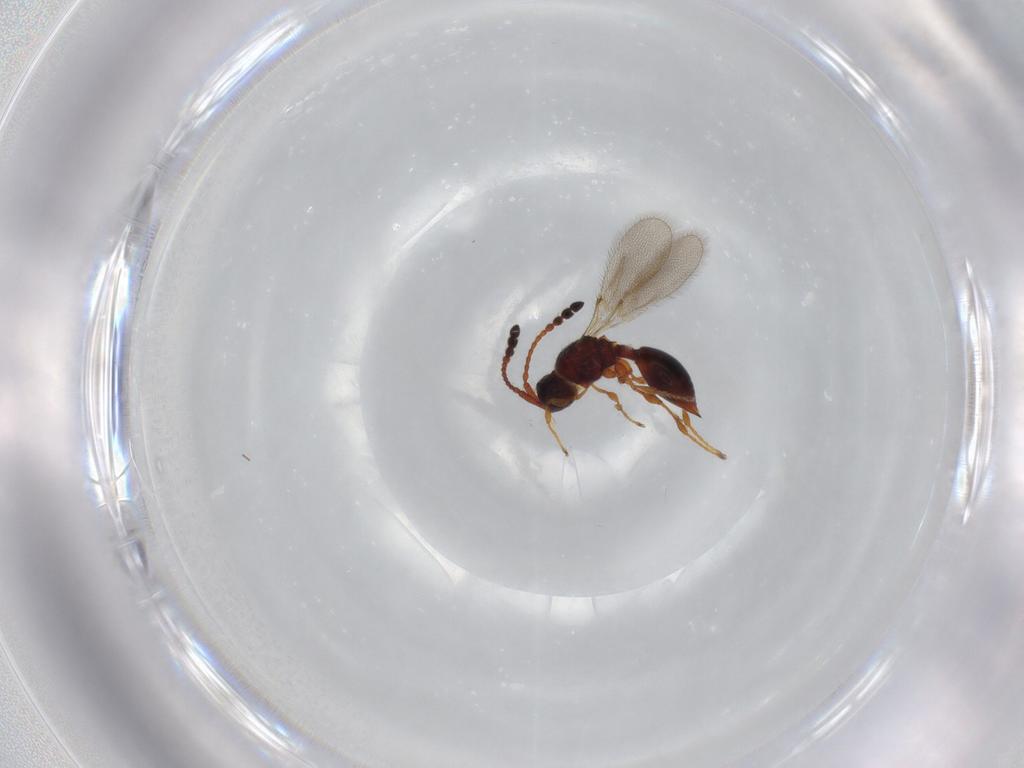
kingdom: Animalia
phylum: Arthropoda
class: Insecta
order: Hymenoptera
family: Diapriidae
